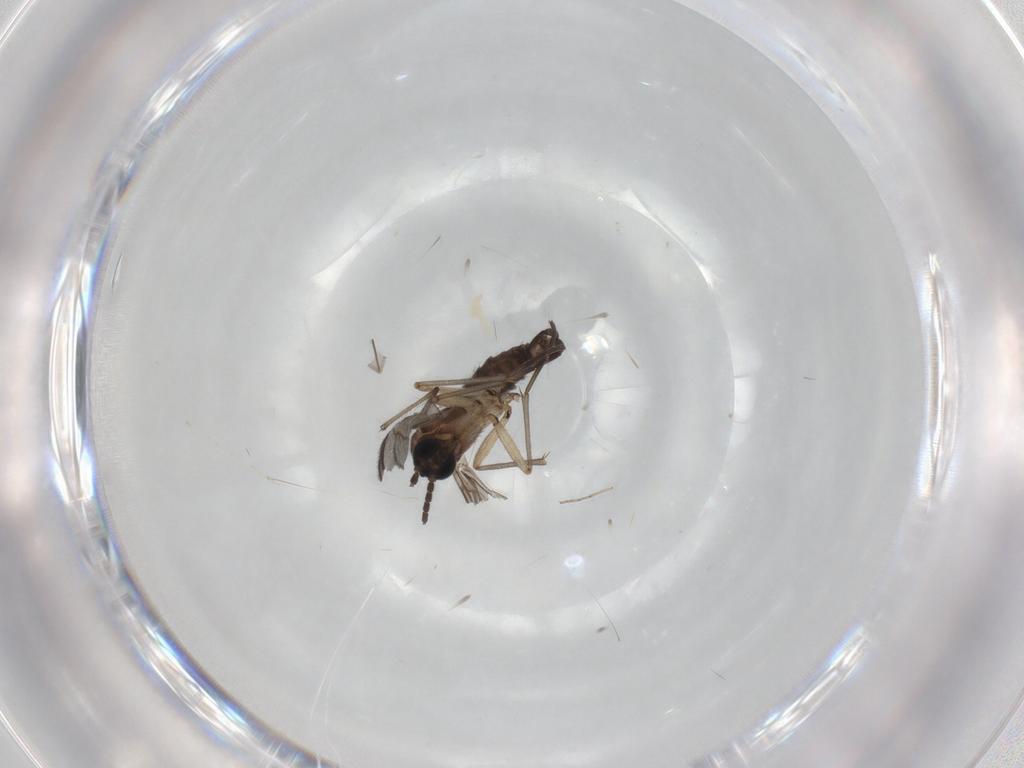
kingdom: Animalia
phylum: Arthropoda
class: Insecta
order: Diptera
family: Sciaridae
